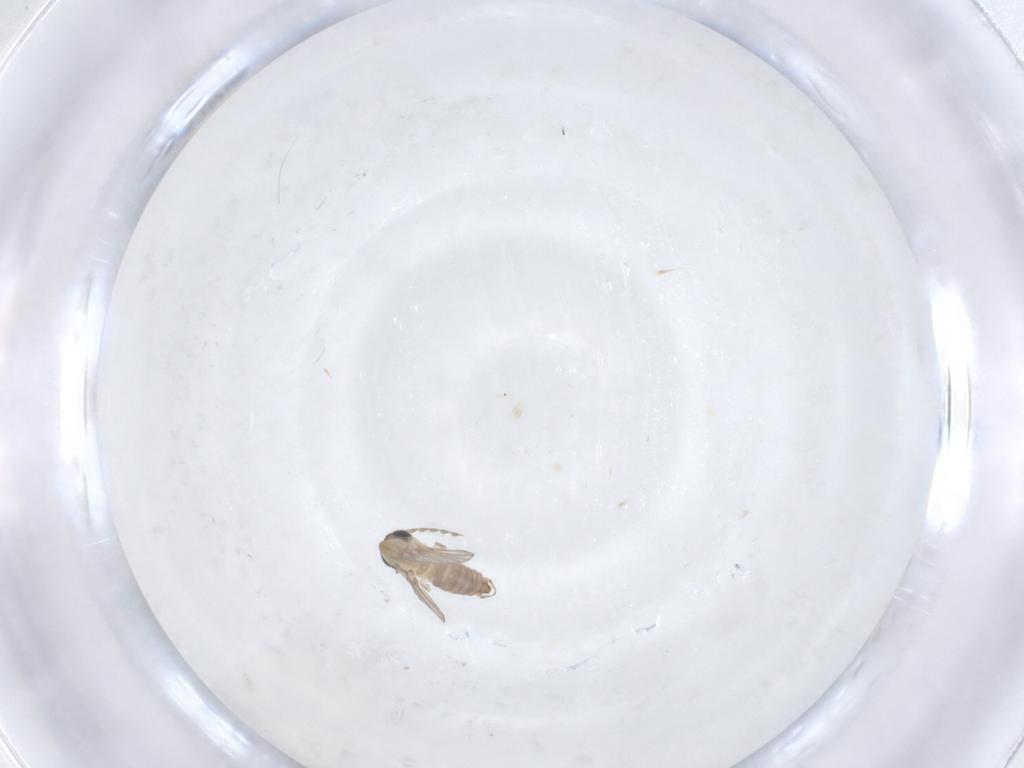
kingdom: Animalia
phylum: Arthropoda
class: Insecta
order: Diptera
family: Psychodidae
